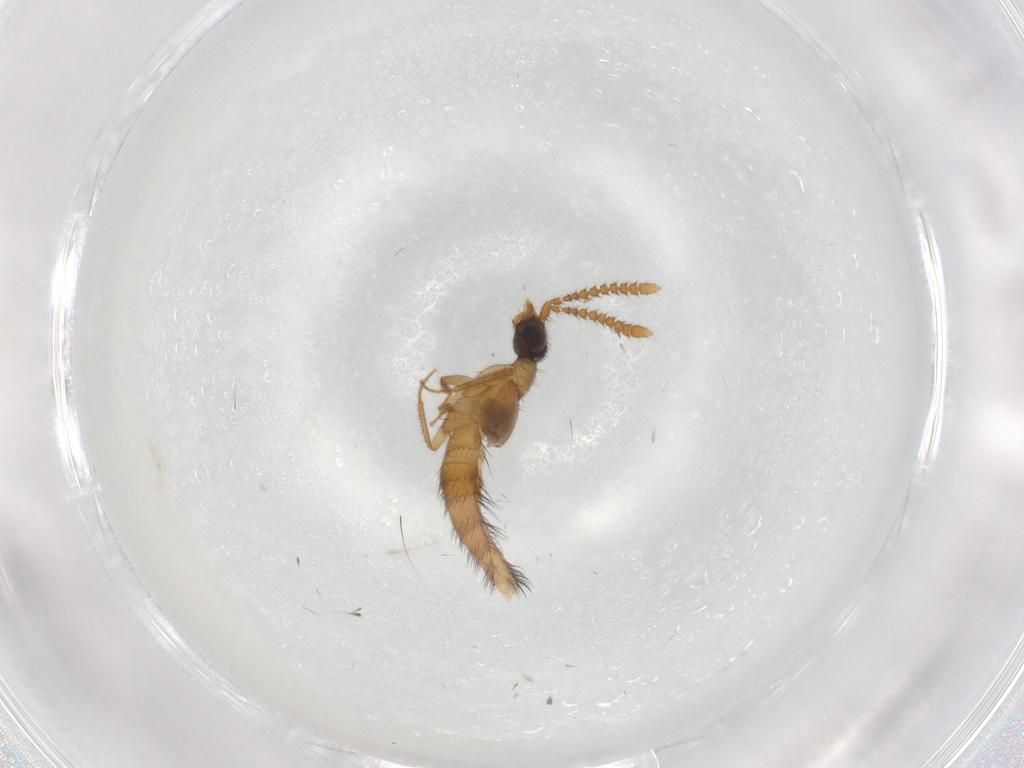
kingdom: Animalia
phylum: Arthropoda
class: Insecta
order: Coleoptera
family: Staphylinidae
